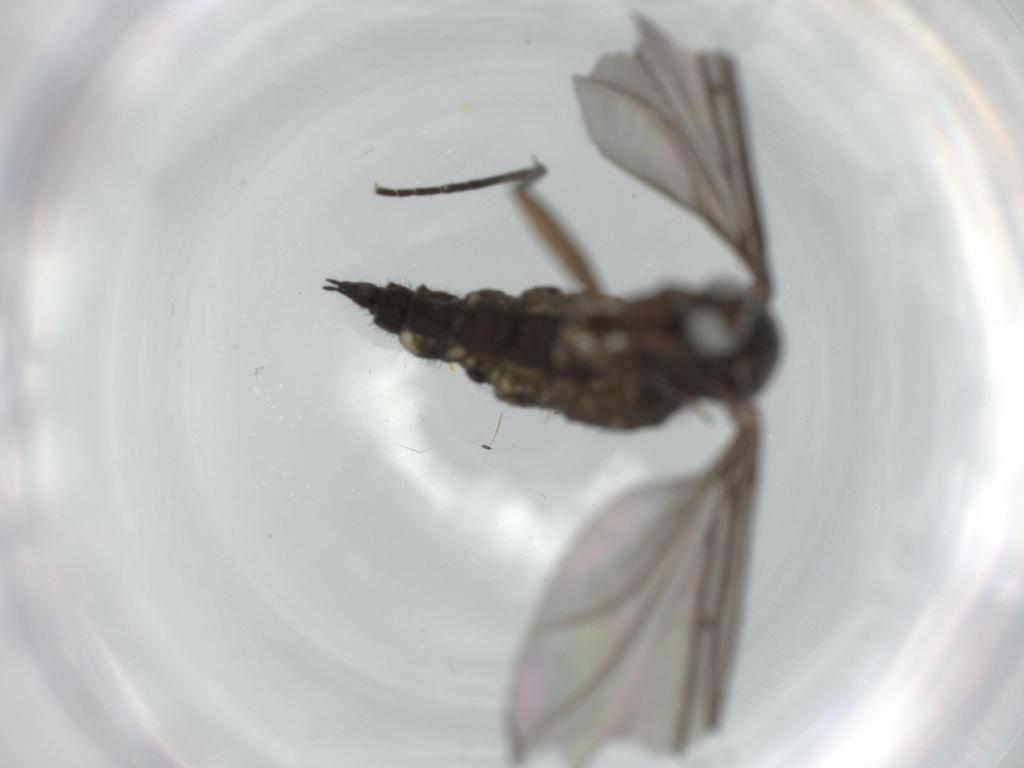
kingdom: Animalia
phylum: Arthropoda
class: Insecta
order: Diptera
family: Sciaridae
